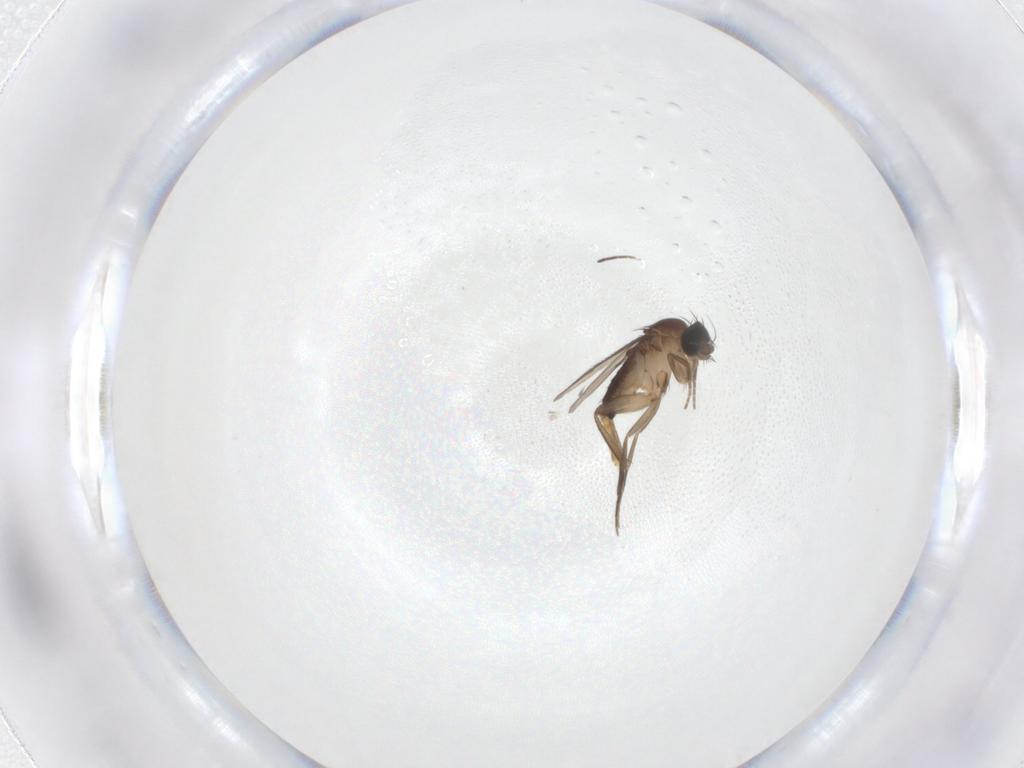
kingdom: Animalia
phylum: Arthropoda
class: Insecta
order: Diptera
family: Phoridae
